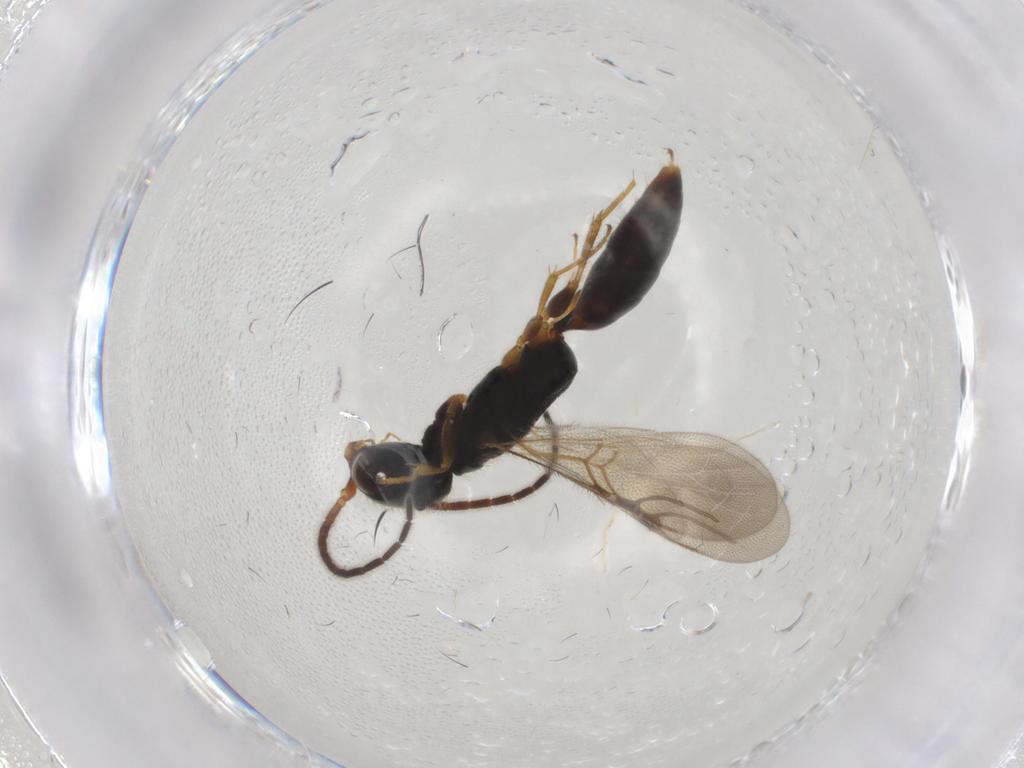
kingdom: Animalia
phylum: Arthropoda
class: Insecta
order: Hymenoptera
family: Bethylidae
